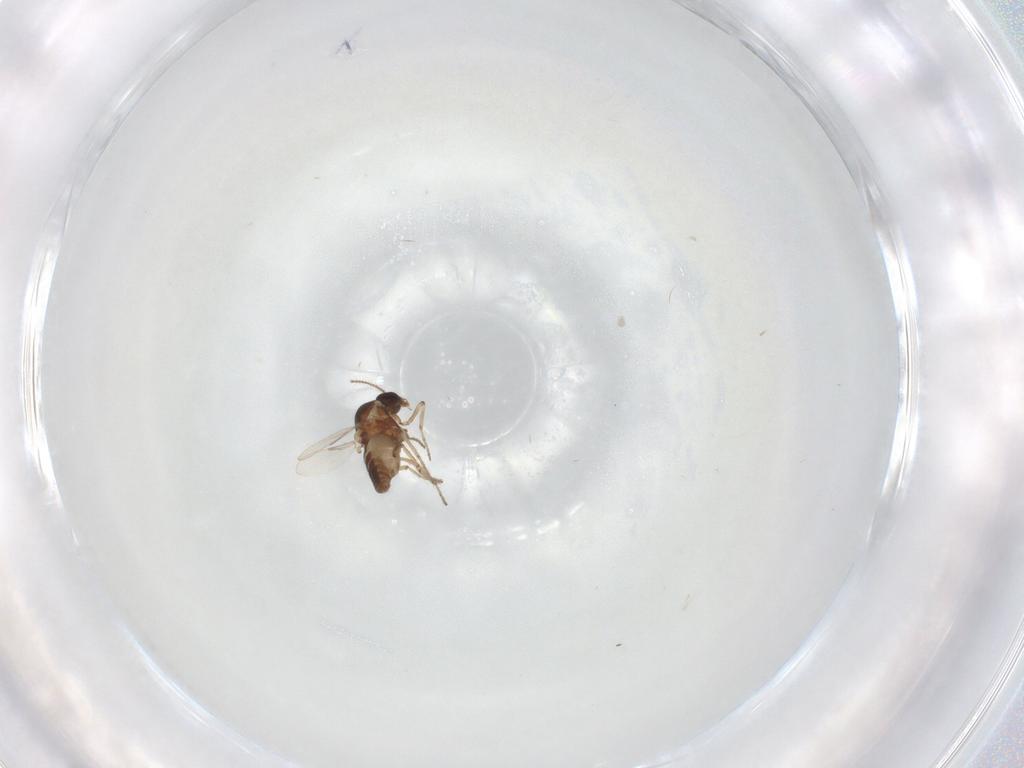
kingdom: Animalia
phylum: Arthropoda
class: Insecta
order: Diptera
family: Ceratopogonidae
